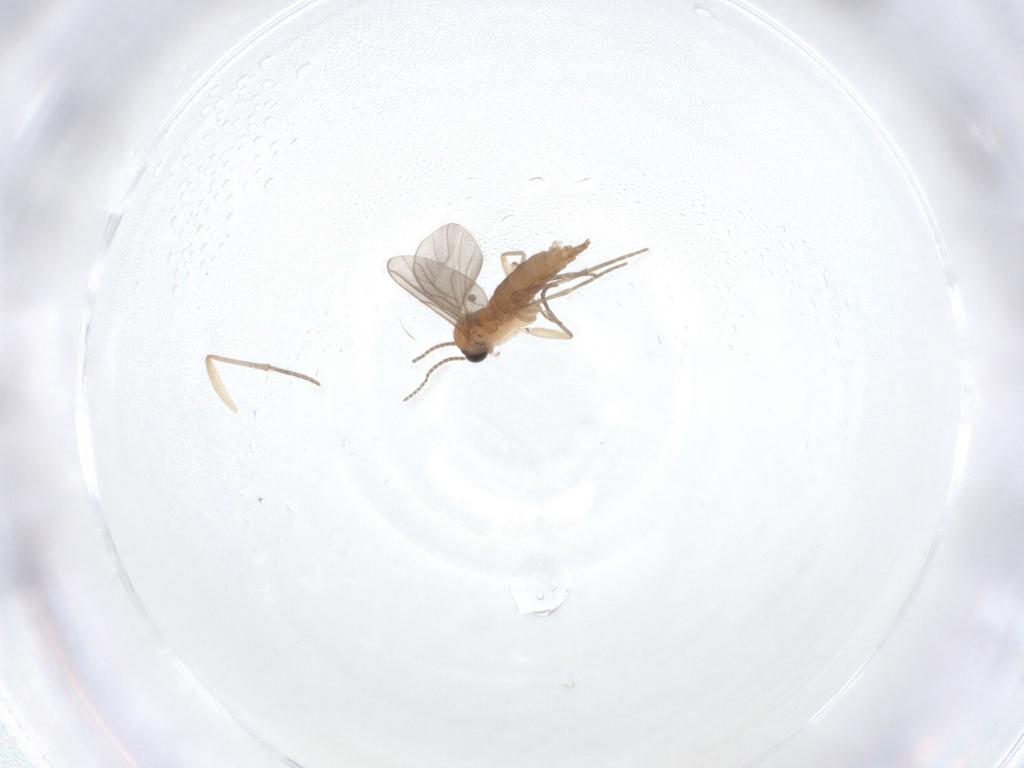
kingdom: Animalia
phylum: Arthropoda
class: Insecta
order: Diptera
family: Sciaridae
